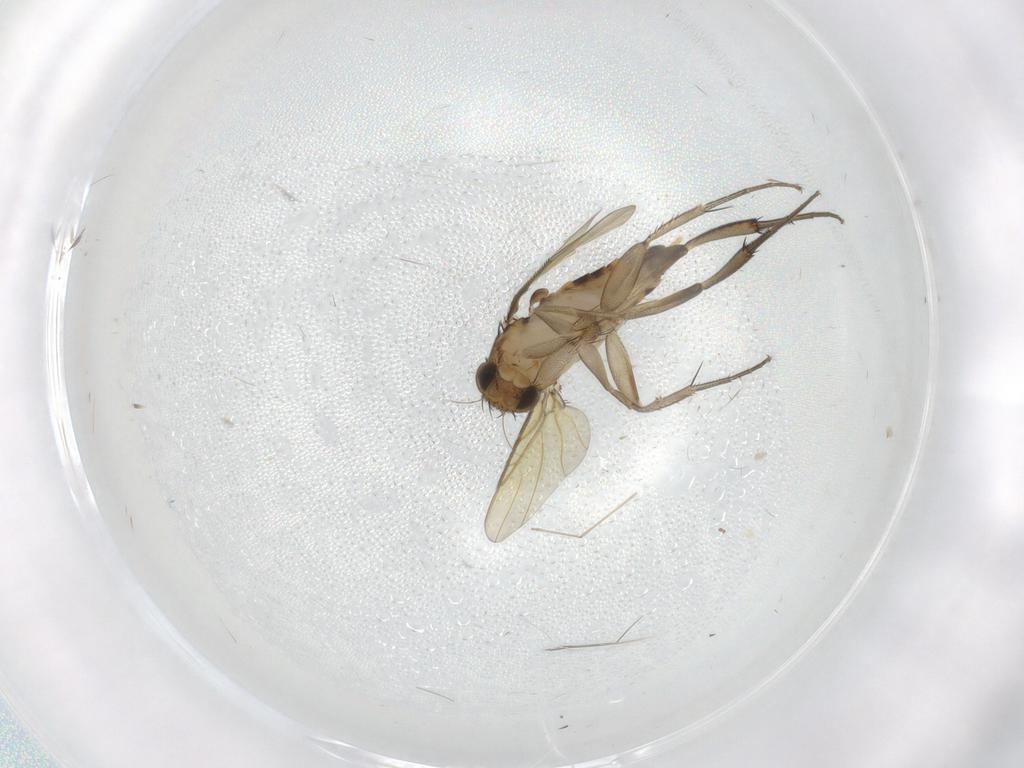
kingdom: Animalia
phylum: Arthropoda
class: Insecta
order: Diptera
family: Phoridae
